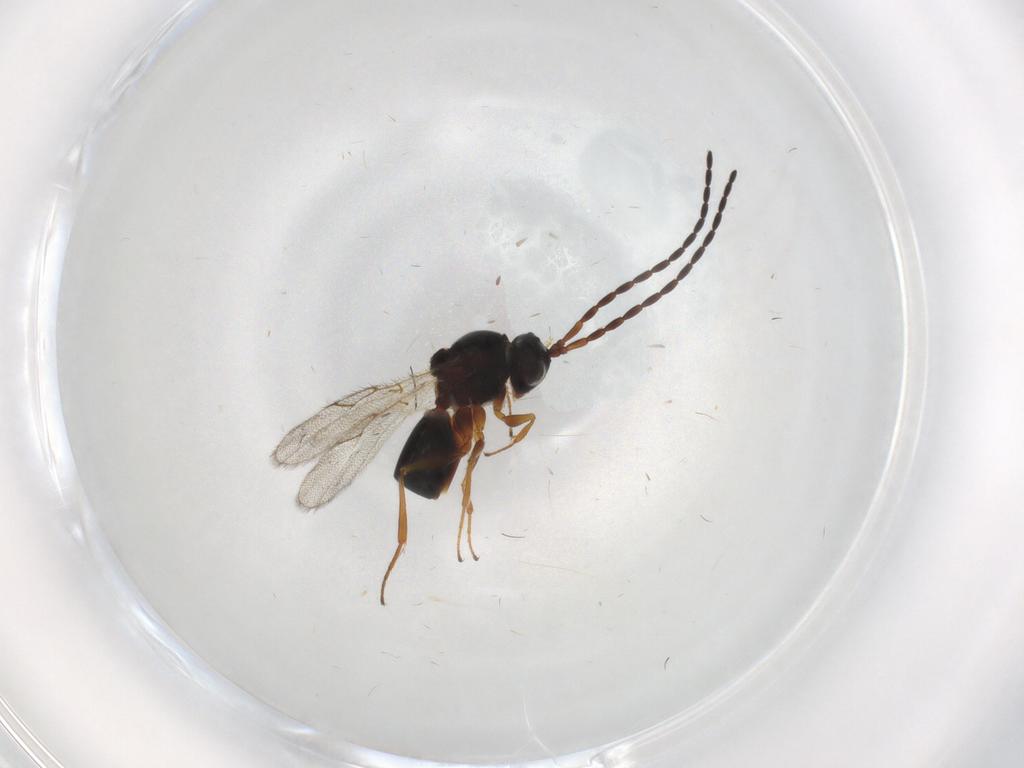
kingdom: Animalia
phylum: Arthropoda
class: Insecta
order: Hymenoptera
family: Figitidae
